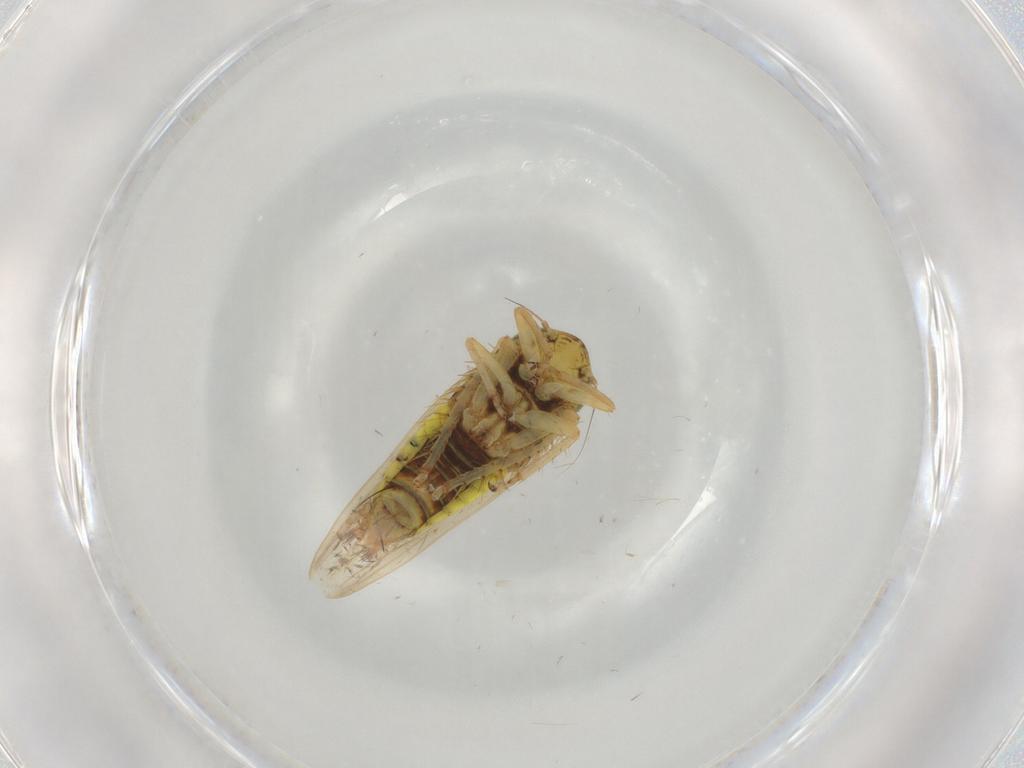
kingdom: Animalia
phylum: Arthropoda
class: Insecta
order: Hemiptera
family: Cicadellidae
